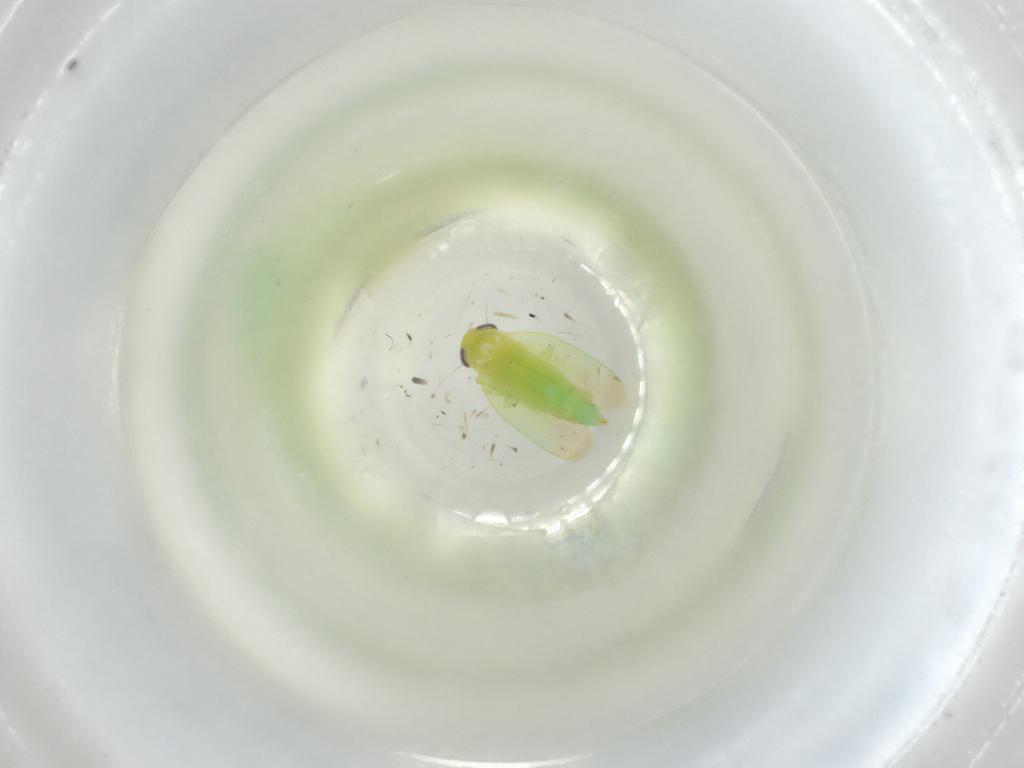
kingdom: Animalia
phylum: Arthropoda
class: Insecta
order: Hemiptera
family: Cicadellidae
